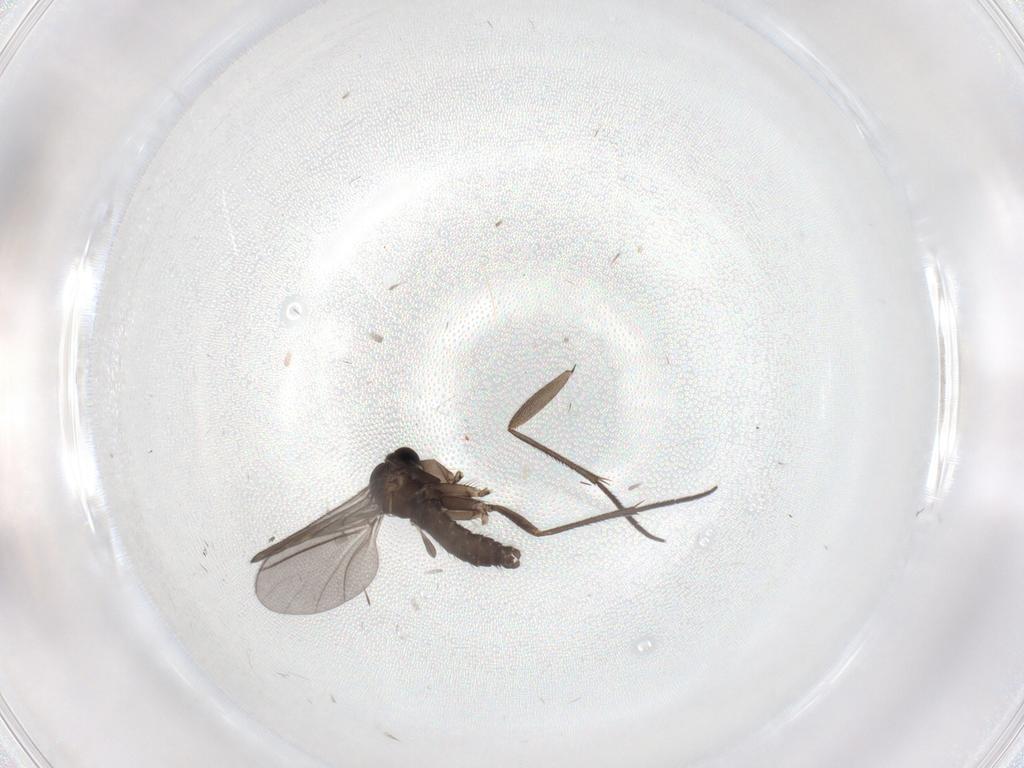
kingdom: Animalia
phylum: Arthropoda
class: Insecta
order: Diptera
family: Sciaridae
